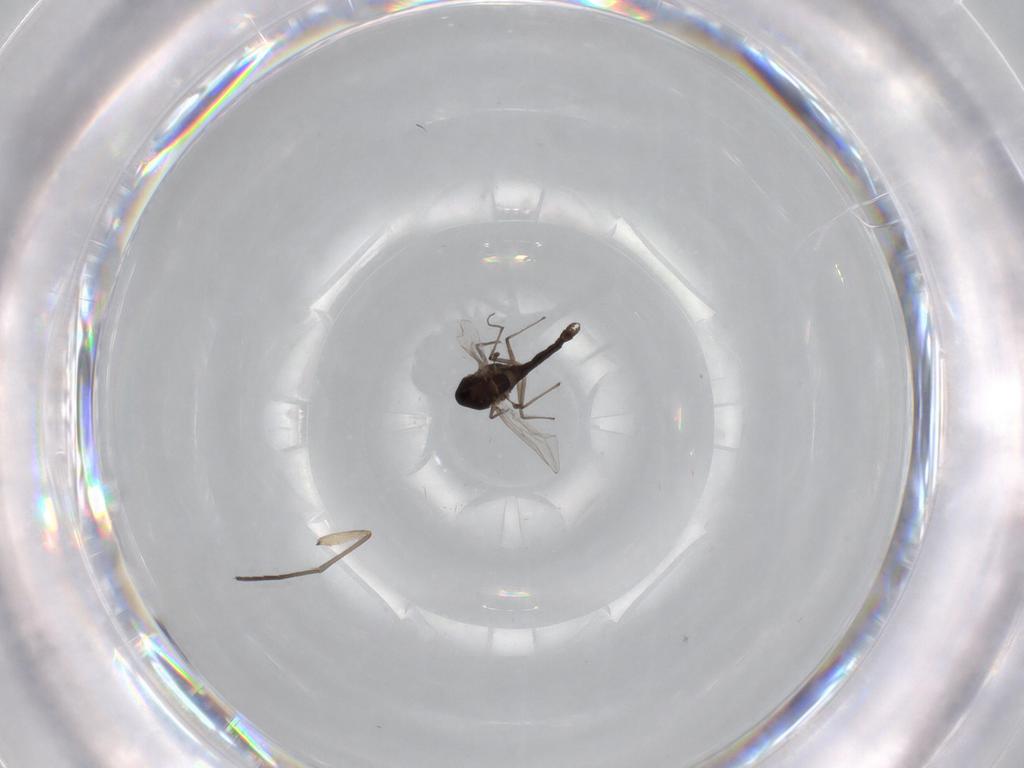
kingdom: Animalia
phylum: Arthropoda
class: Insecta
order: Diptera
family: Chironomidae
